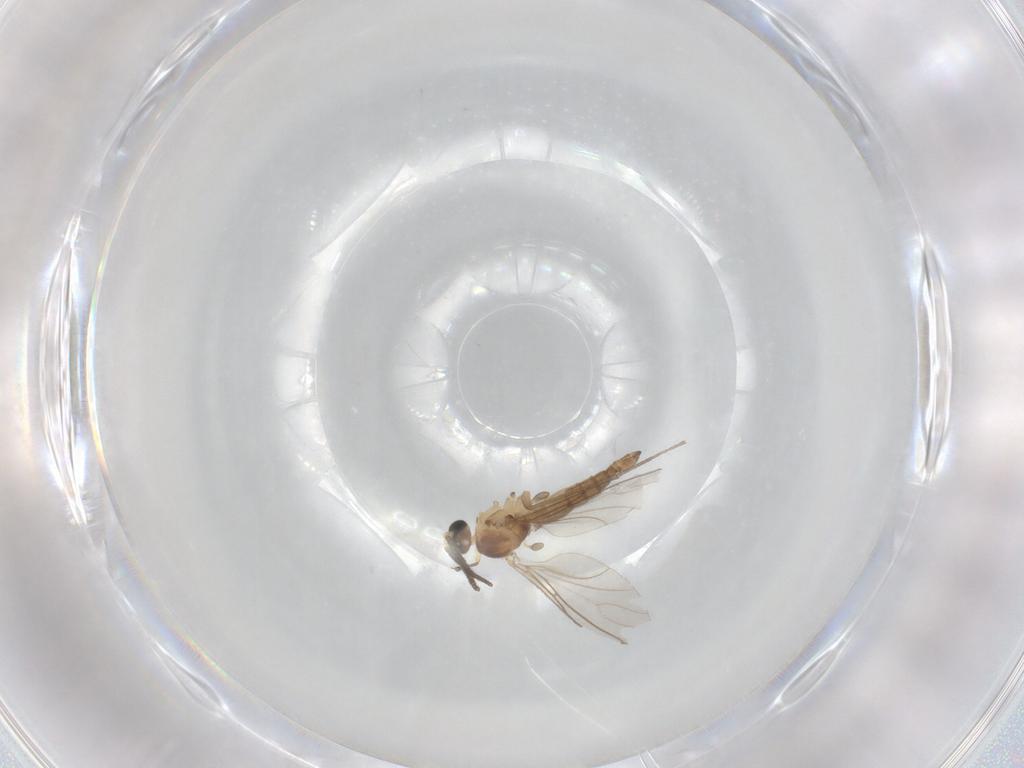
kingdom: Animalia
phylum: Arthropoda
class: Insecta
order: Diptera
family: Sciaridae
